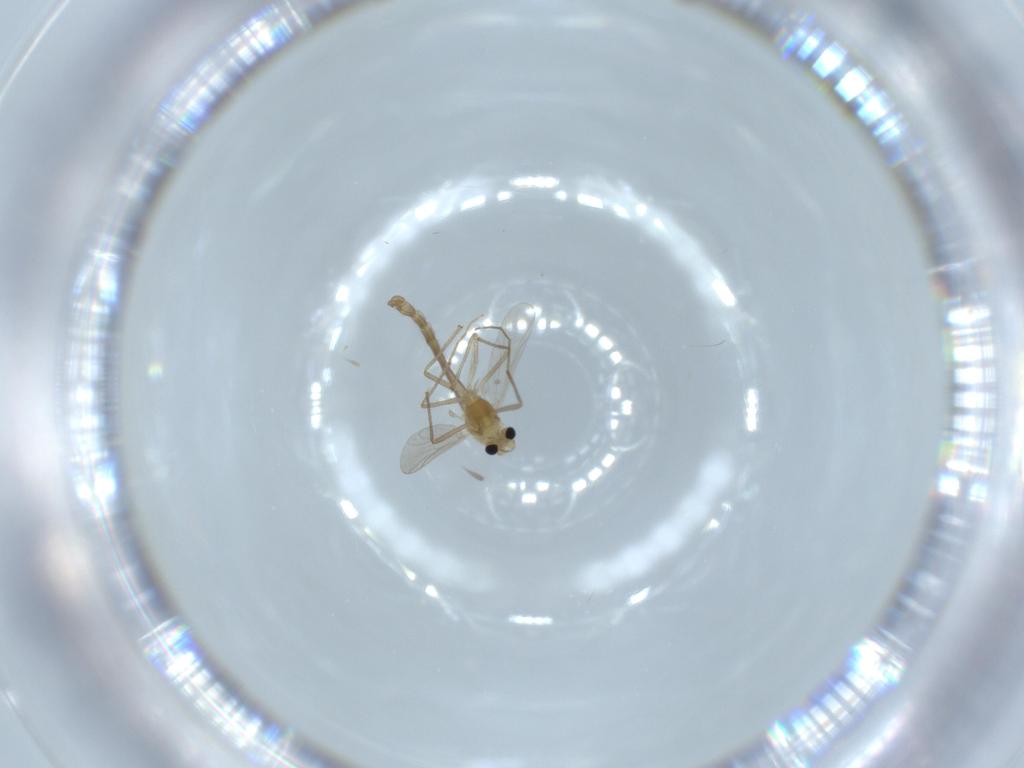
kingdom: Animalia
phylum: Arthropoda
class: Insecta
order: Diptera
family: Chironomidae
